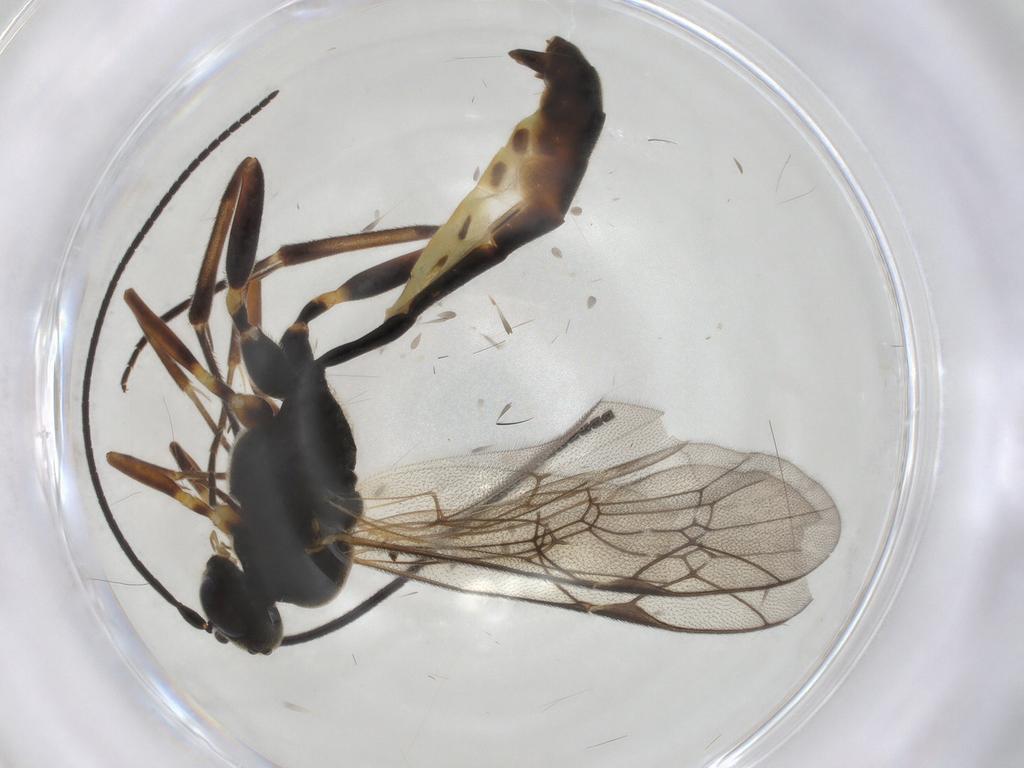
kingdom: Animalia
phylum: Arthropoda
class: Insecta
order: Hymenoptera
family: Ichneumonidae
